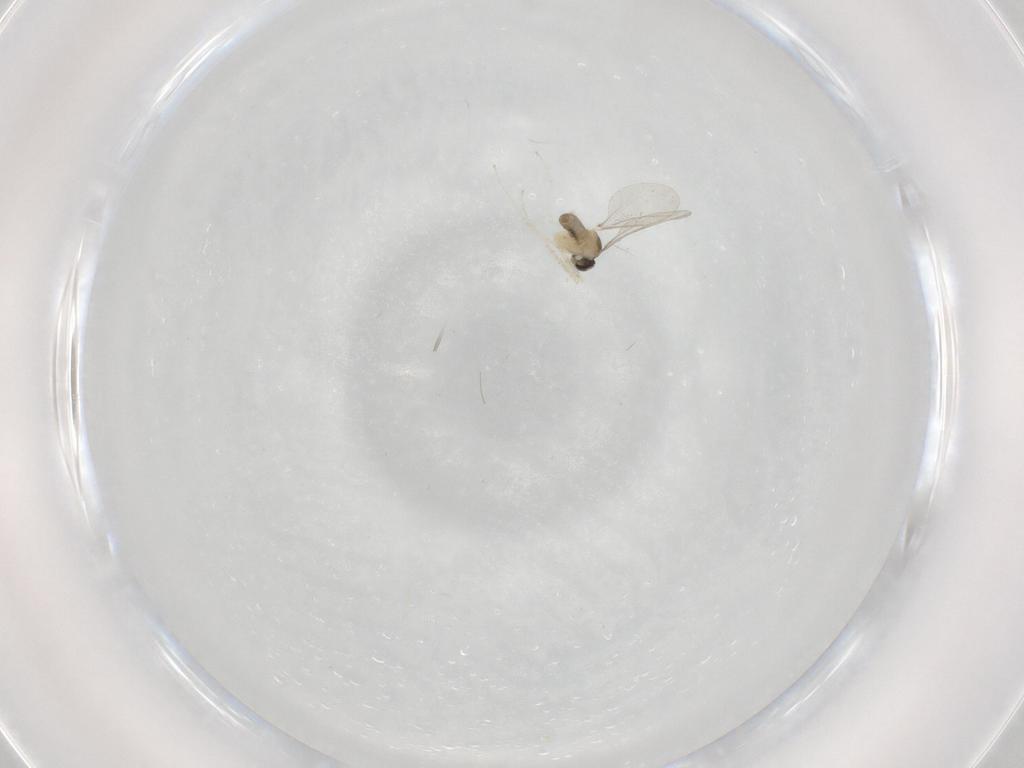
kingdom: Animalia
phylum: Arthropoda
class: Insecta
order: Diptera
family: Cecidomyiidae
